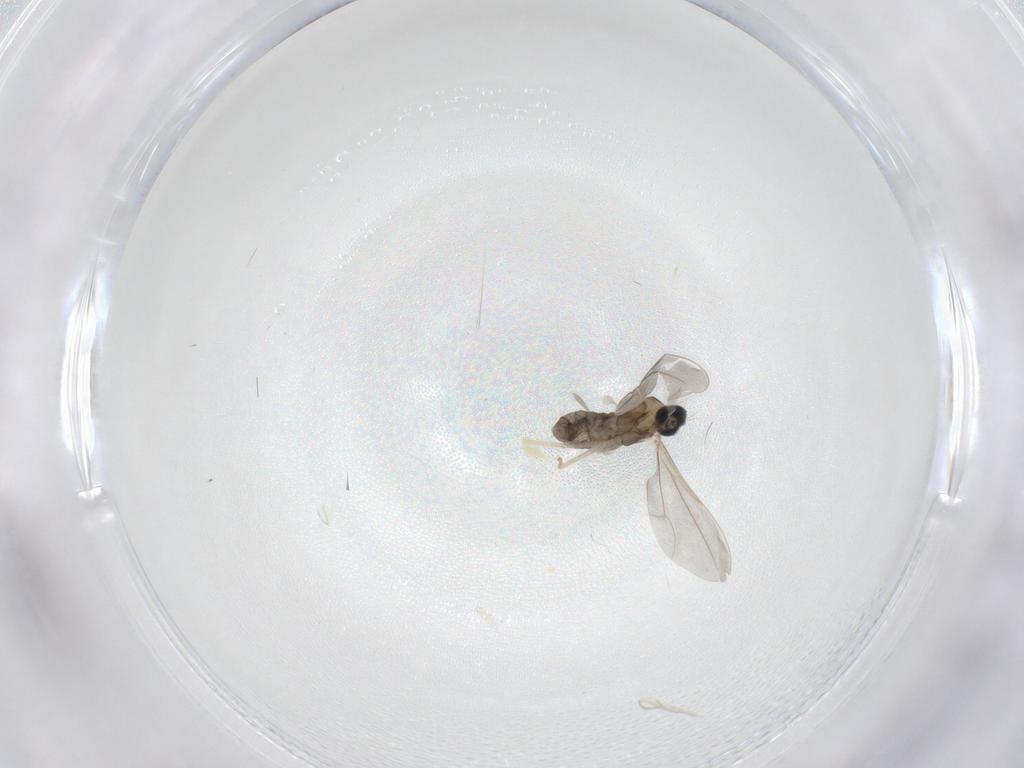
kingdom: Animalia
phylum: Arthropoda
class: Insecta
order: Diptera
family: Cecidomyiidae
